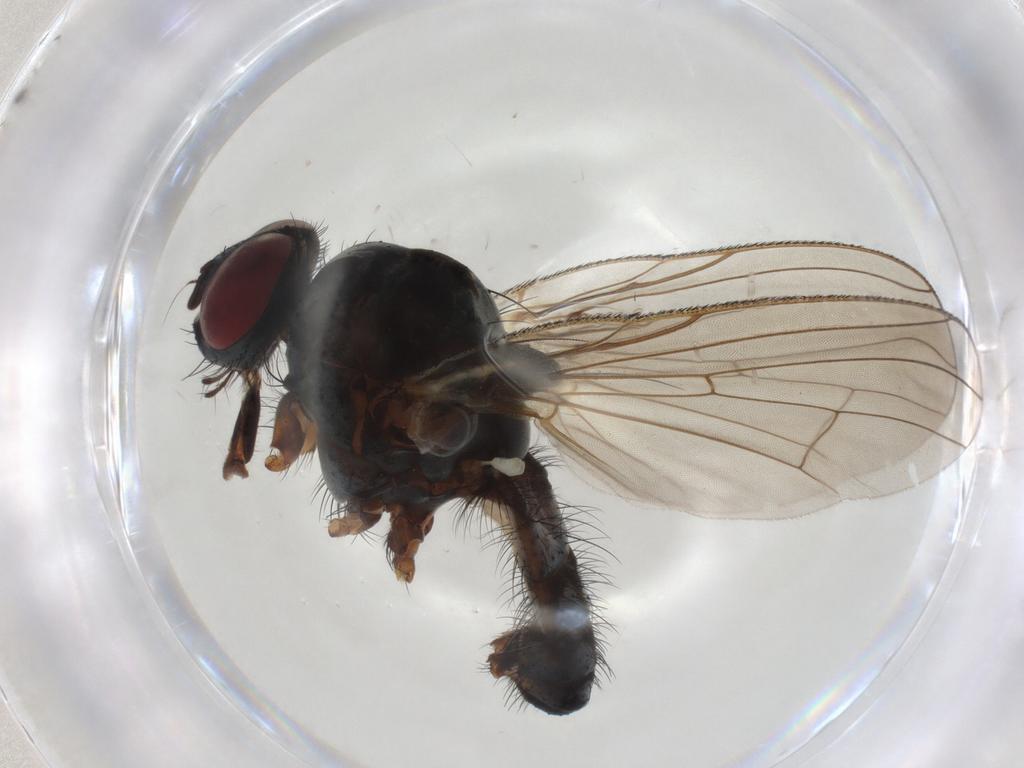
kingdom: Animalia
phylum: Arthropoda
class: Insecta
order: Diptera
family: Anthomyiidae
